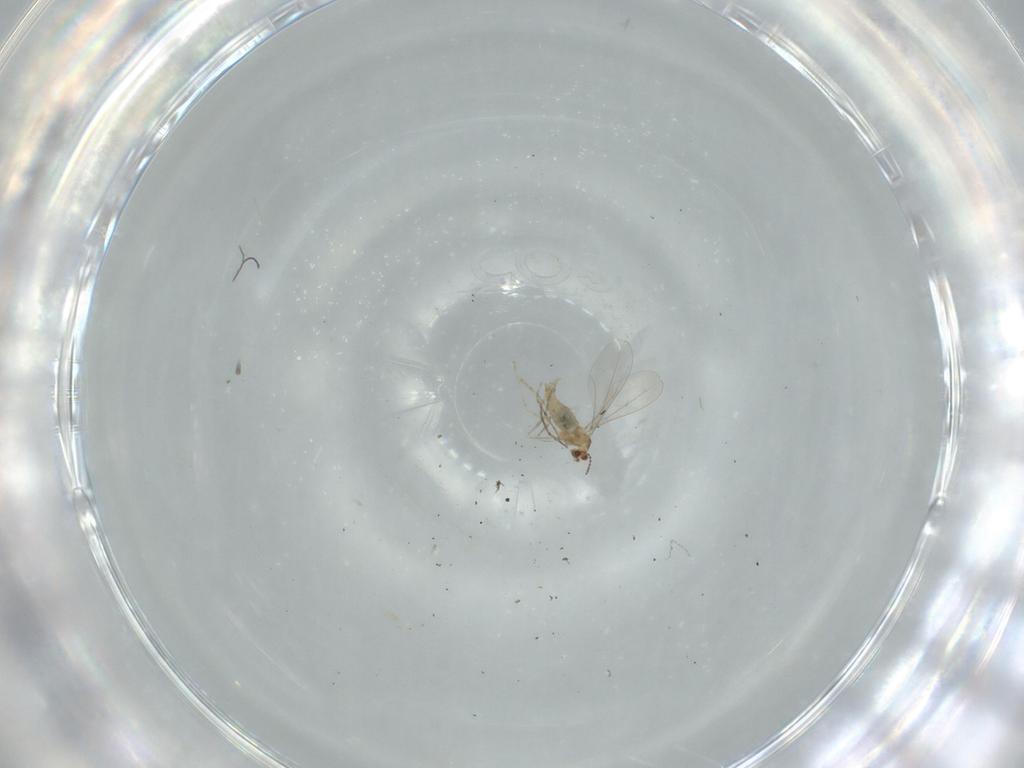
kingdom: Animalia
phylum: Arthropoda
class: Insecta
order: Diptera
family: Cecidomyiidae
